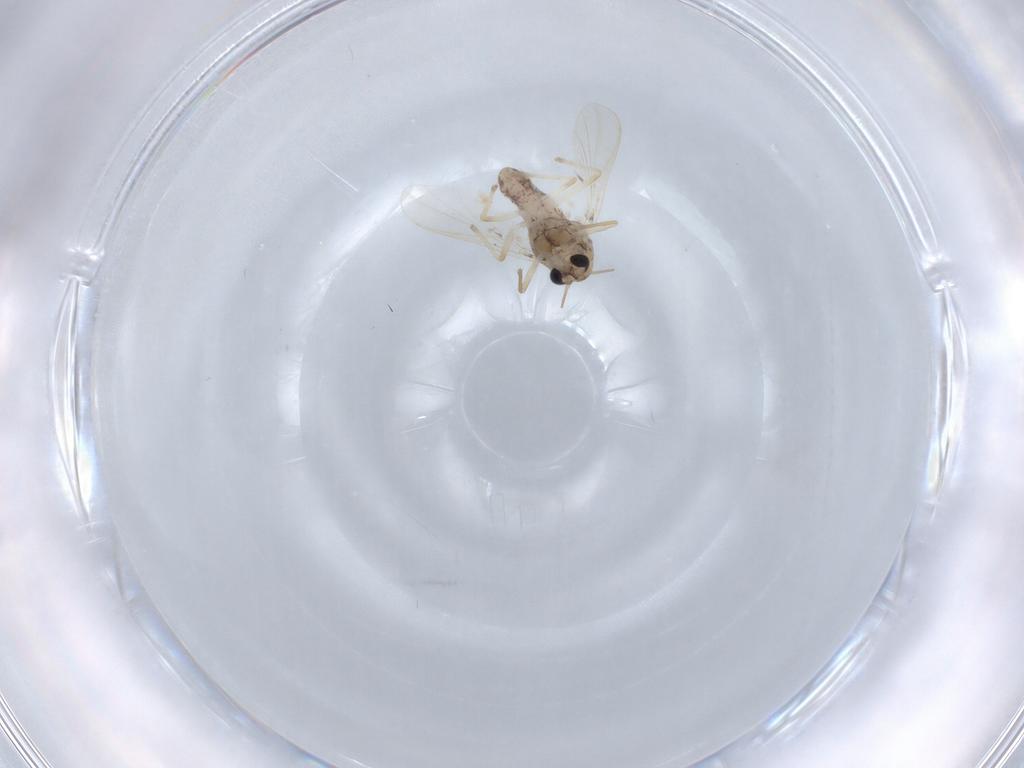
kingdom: Animalia
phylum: Arthropoda
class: Insecta
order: Diptera
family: Chironomidae
